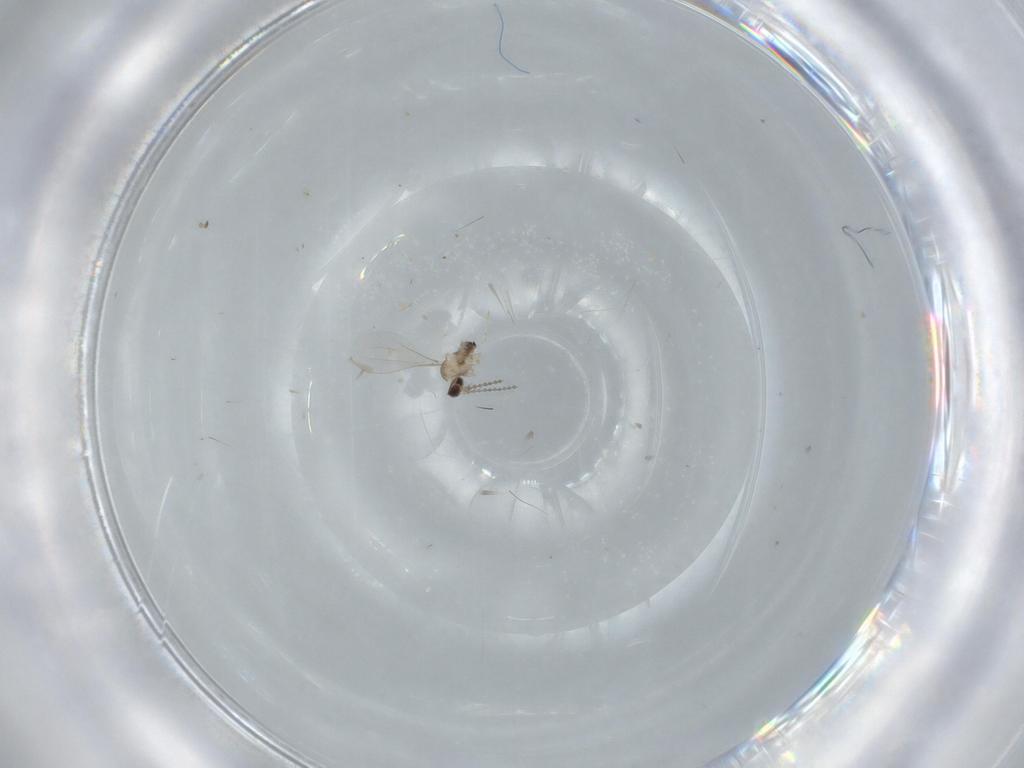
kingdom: Animalia
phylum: Arthropoda
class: Insecta
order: Diptera
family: Cecidomyiidae
